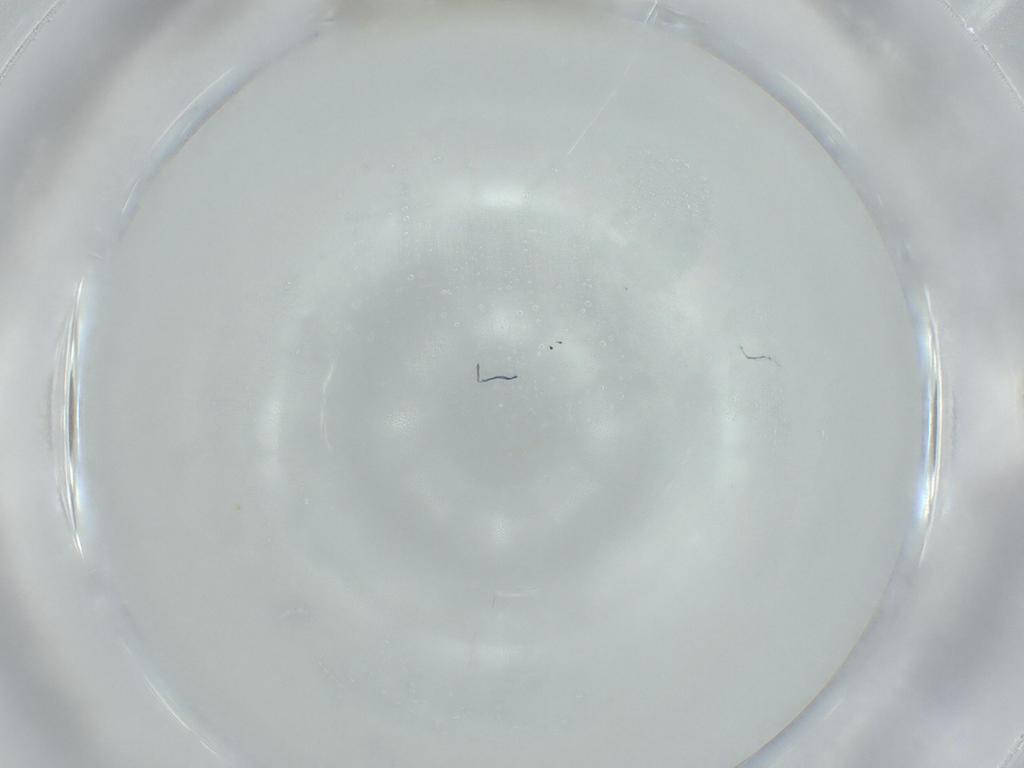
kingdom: Animalia
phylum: Arthropoda
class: Insecta
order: Diptera
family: Chironomidae
